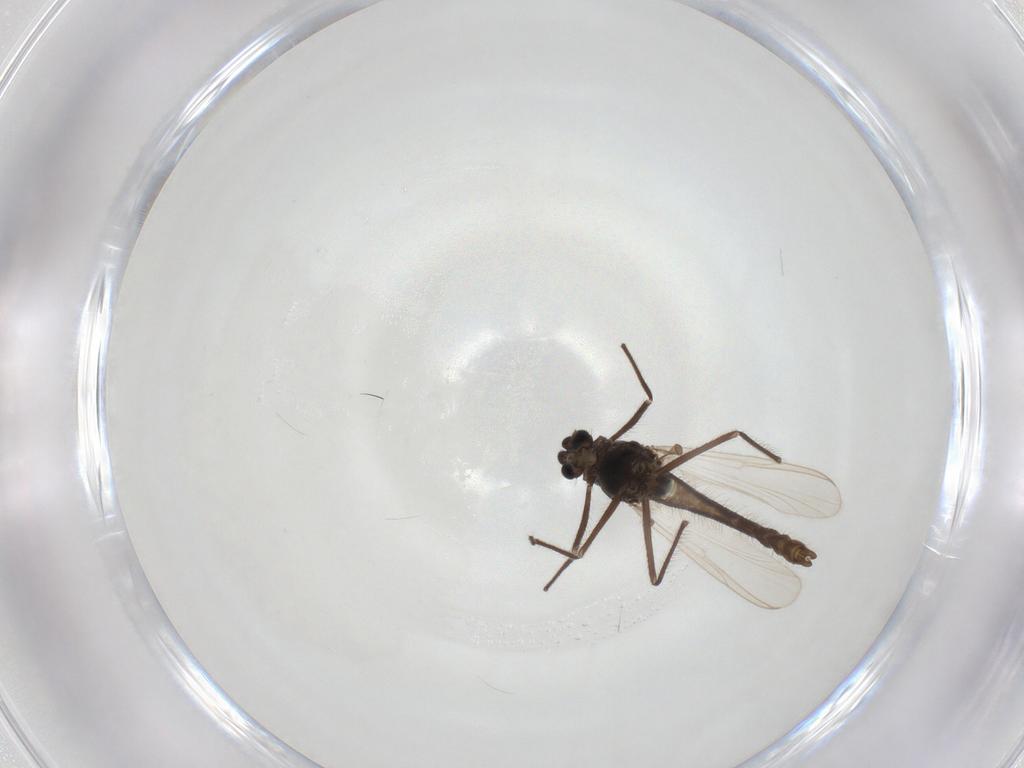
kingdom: Animalia
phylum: Arthropoda
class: Insecta
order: Diptera
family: Chironomidae
